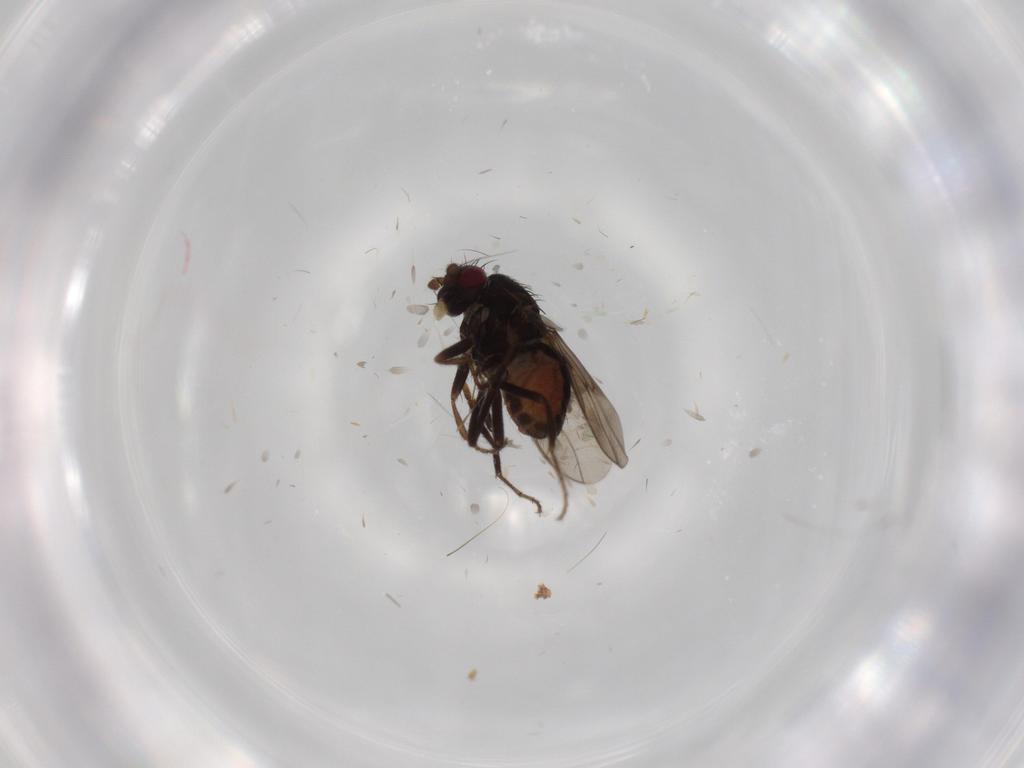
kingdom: Animalia
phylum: Arthropoda
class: Insecta
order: Diptera
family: Sphaeroceridae
